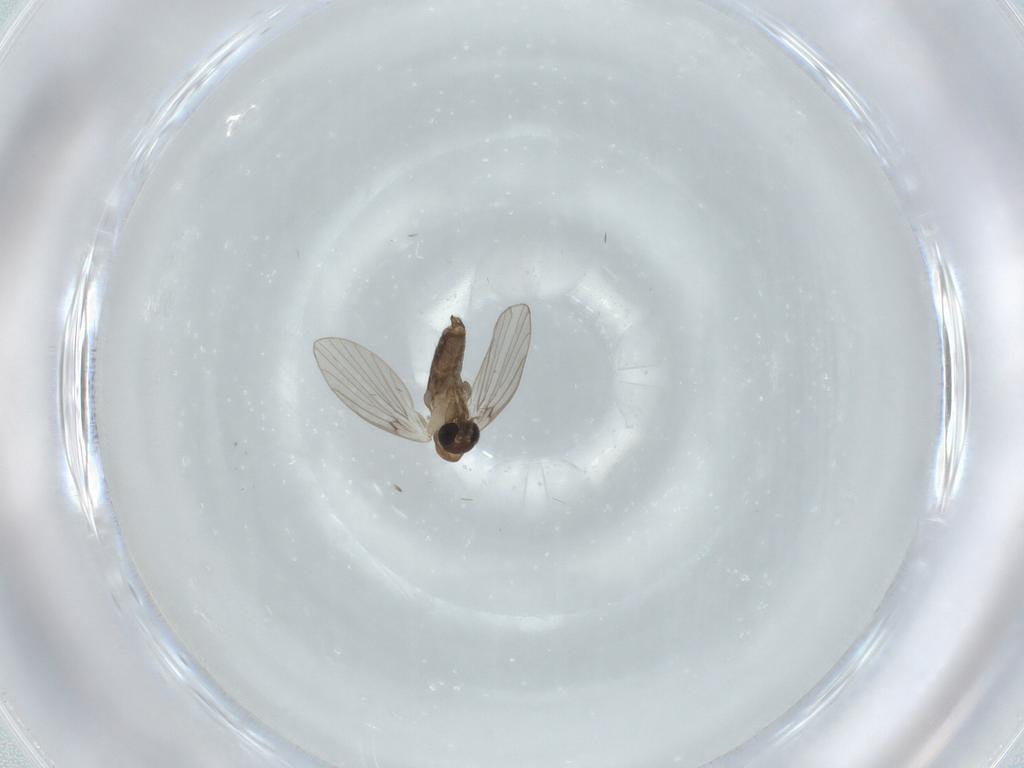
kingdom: Animalia
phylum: Arthropoda
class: Insecta
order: Diptera
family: Psychodidae
